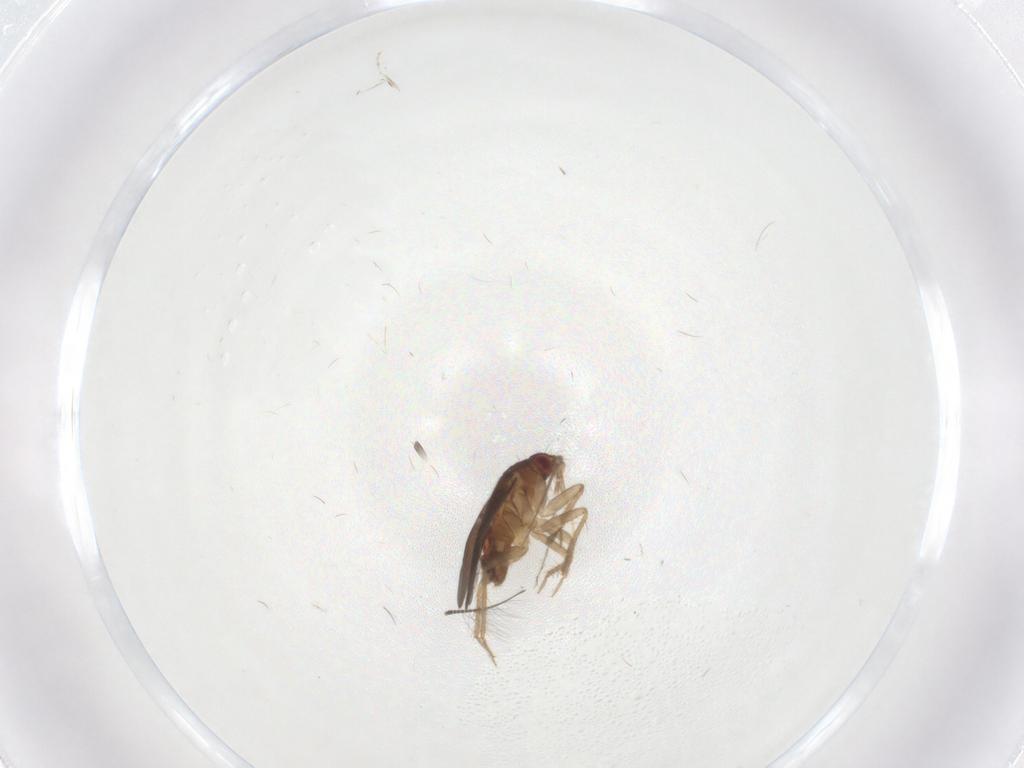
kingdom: Animalia
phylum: Arthropoda
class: Insecta
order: Hemiptera
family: Ceratocombidae
